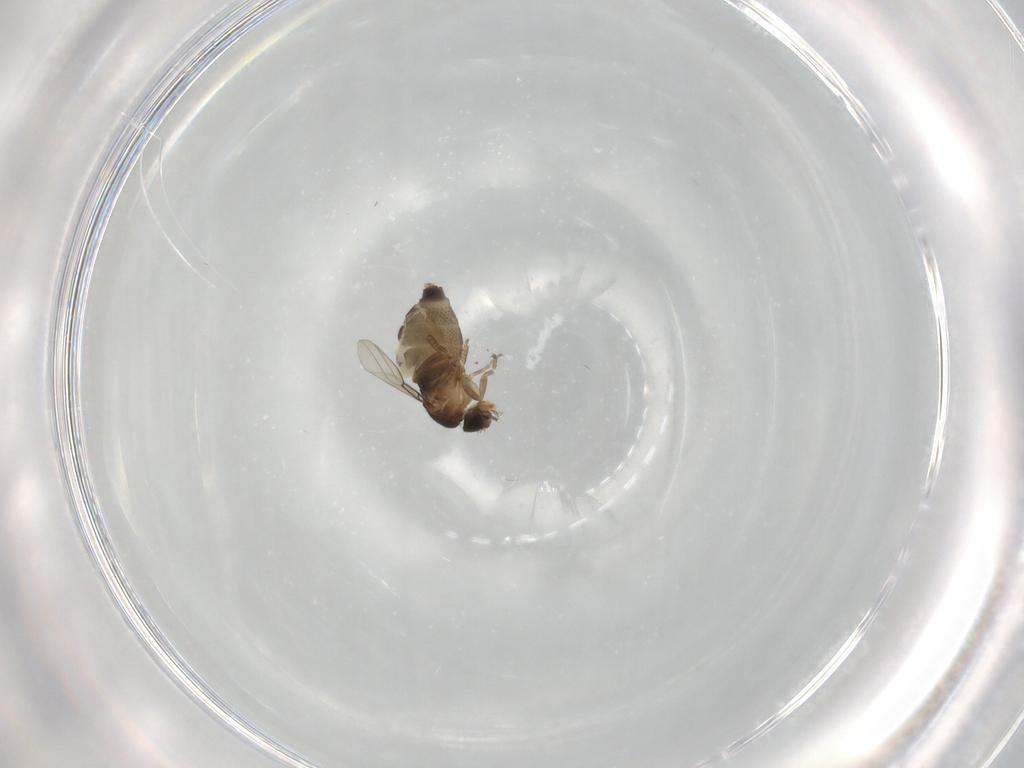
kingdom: Animalia
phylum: Arthropoda
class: Insecta
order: Diptera
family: Phoridae
